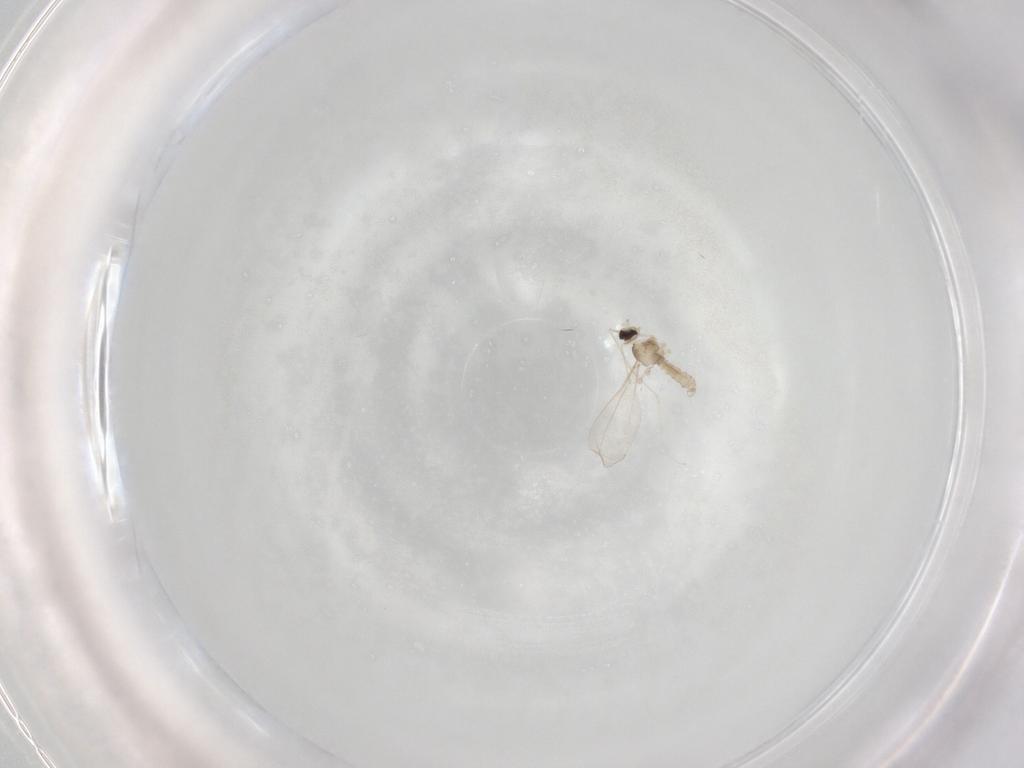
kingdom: Animalia
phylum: Arthropoda
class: Insecta
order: Diptera
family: Cecidomyiidae
